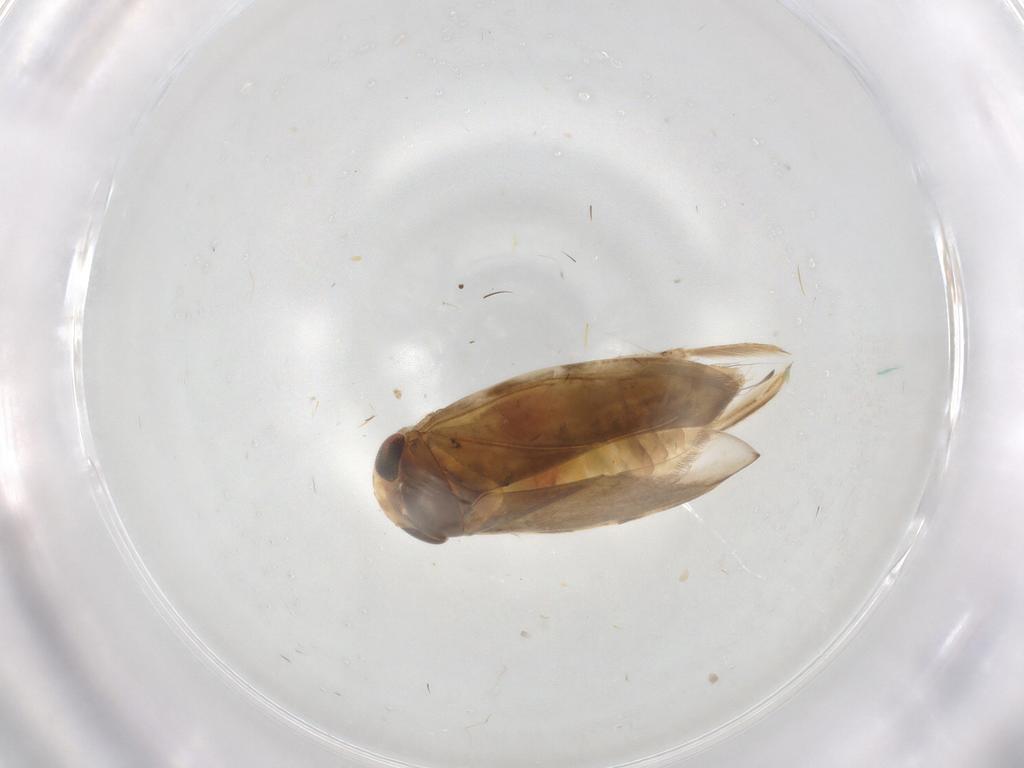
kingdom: Animalia
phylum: Arthropoda
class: Insecta
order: Hemiptera
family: Corixidae
